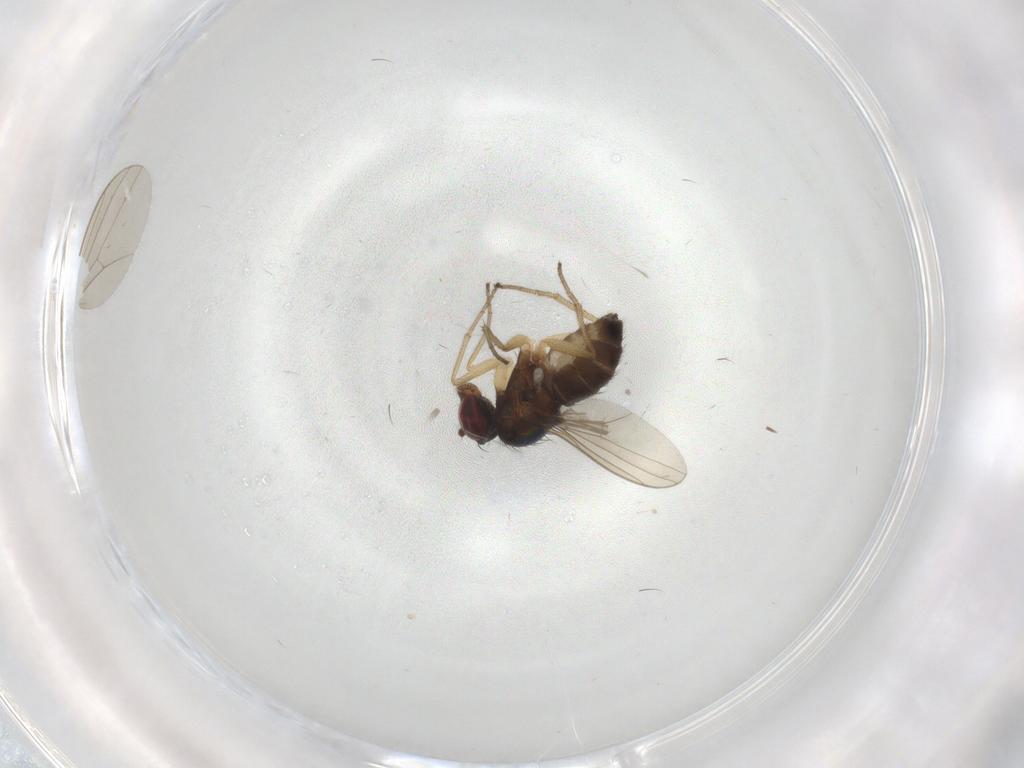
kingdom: Animalia
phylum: Arthropoda
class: Insecta
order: Diptera
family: Dolichopodidae
